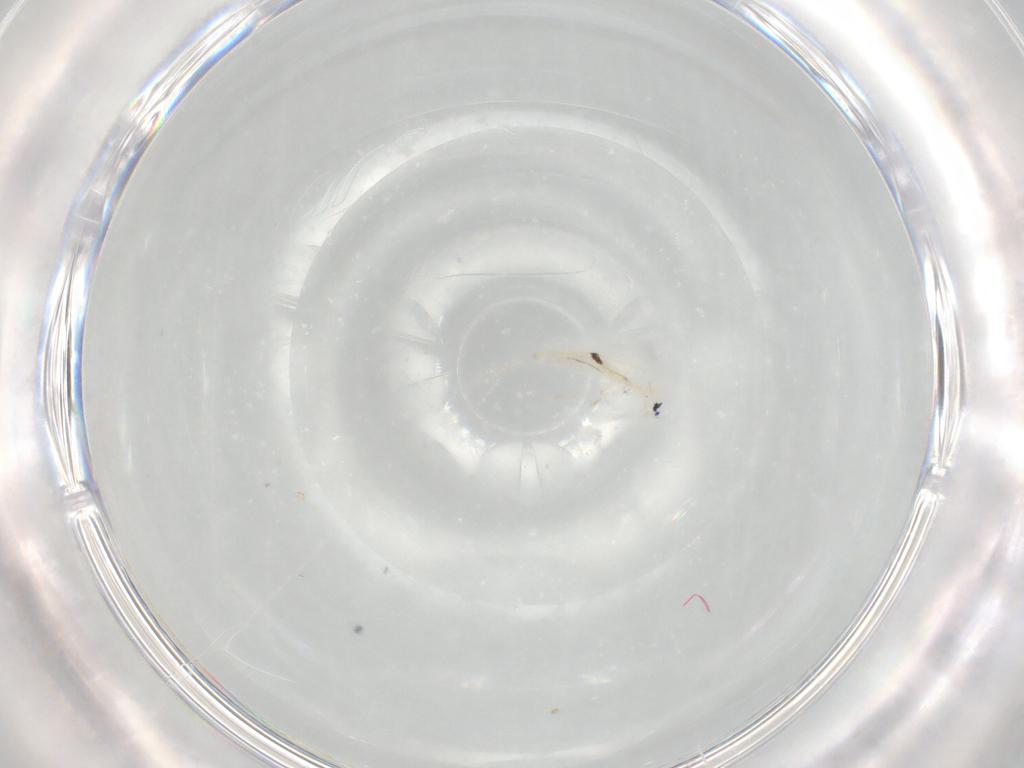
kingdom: Animalia
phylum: Arthropoda
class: Collembola
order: Entomobryomorpha
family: Entomobryidae
